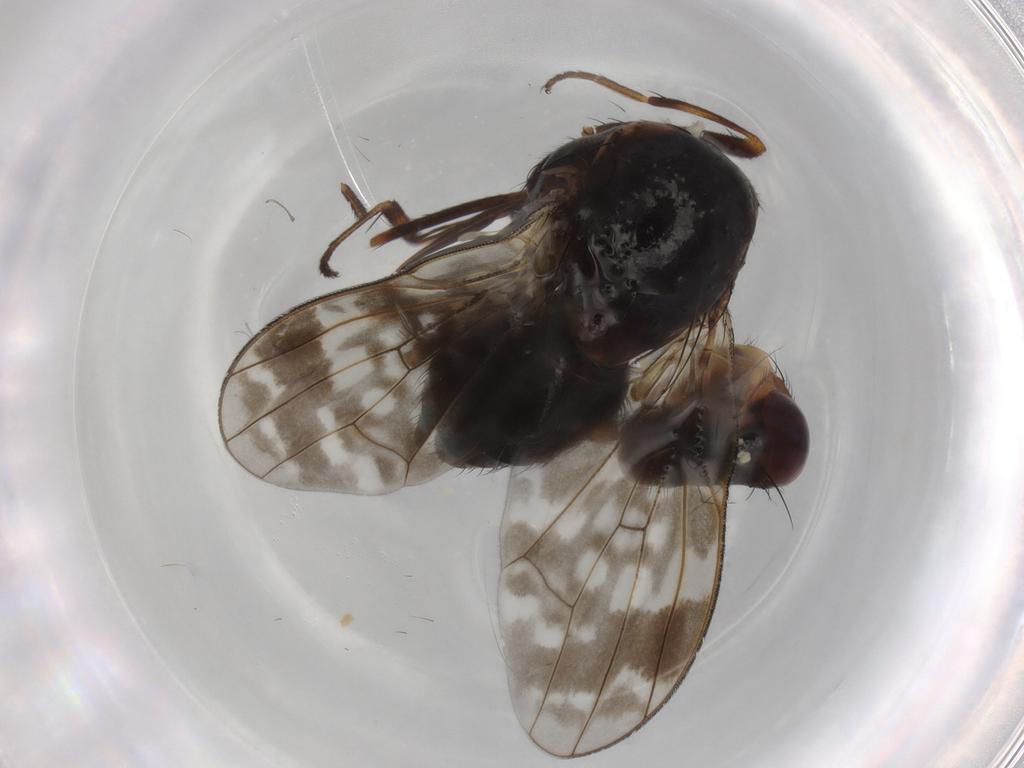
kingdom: Animalia
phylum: Arthropoda
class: Insecta
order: Diptera
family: Lauxaniidae
